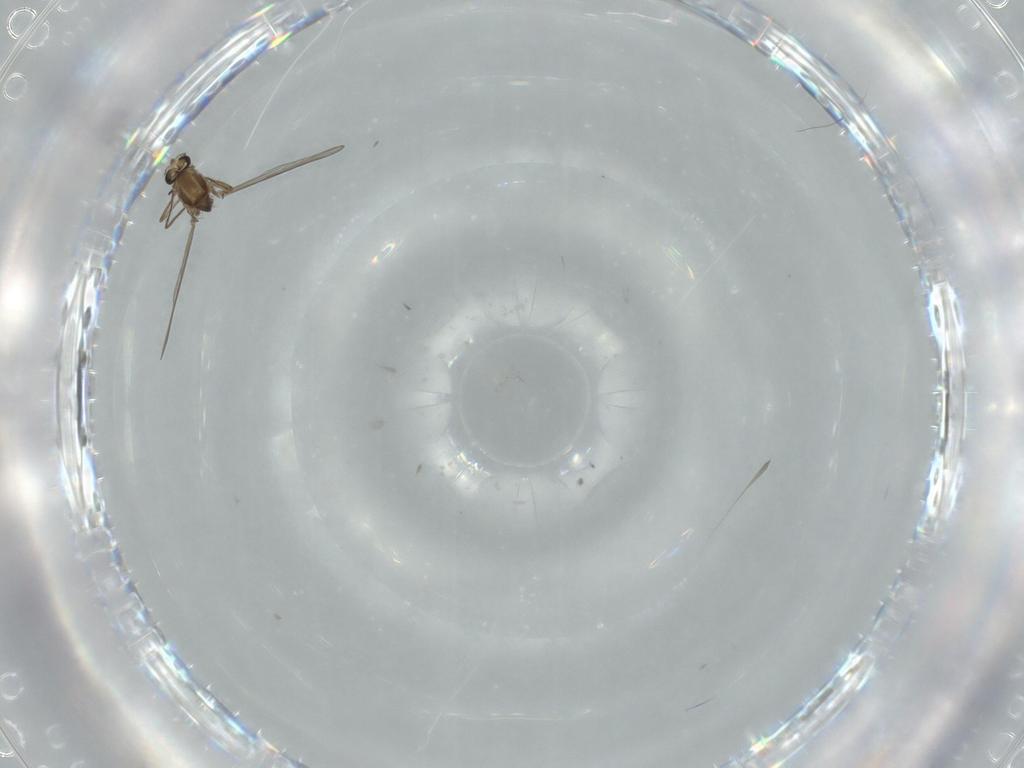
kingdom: Animalia
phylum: Arthropoda
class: Insecta
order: Diptera
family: Chironomidae
